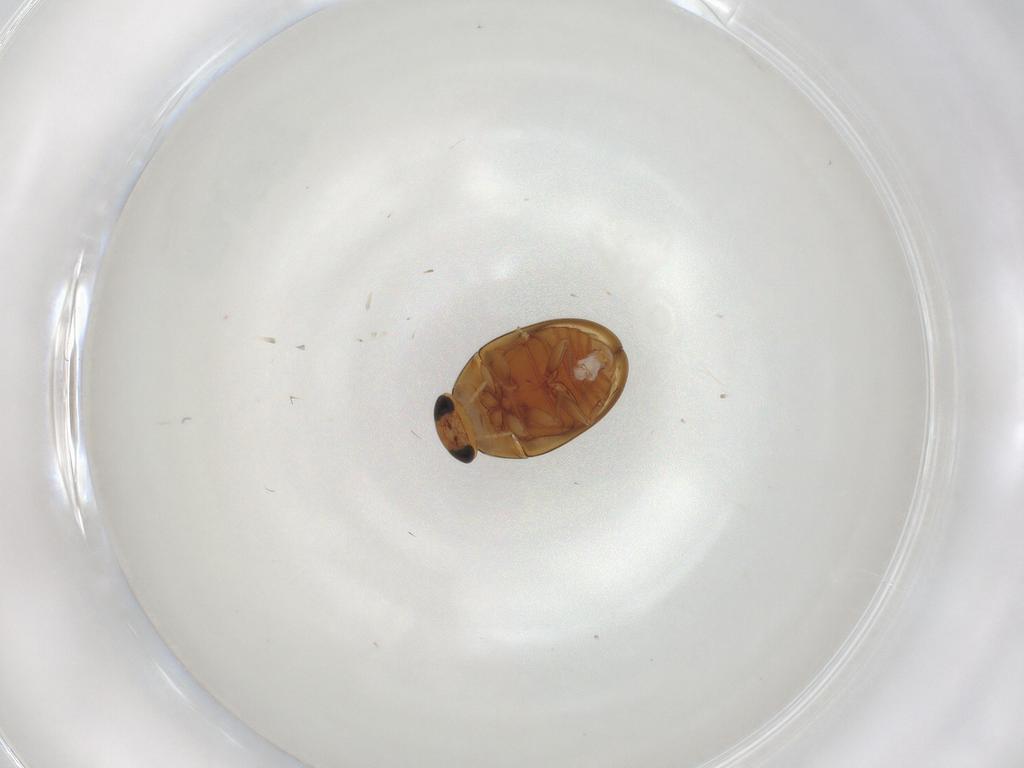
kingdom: Animalia
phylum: Arthropoda
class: Insecta
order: Coleoptera
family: Phalacridae
